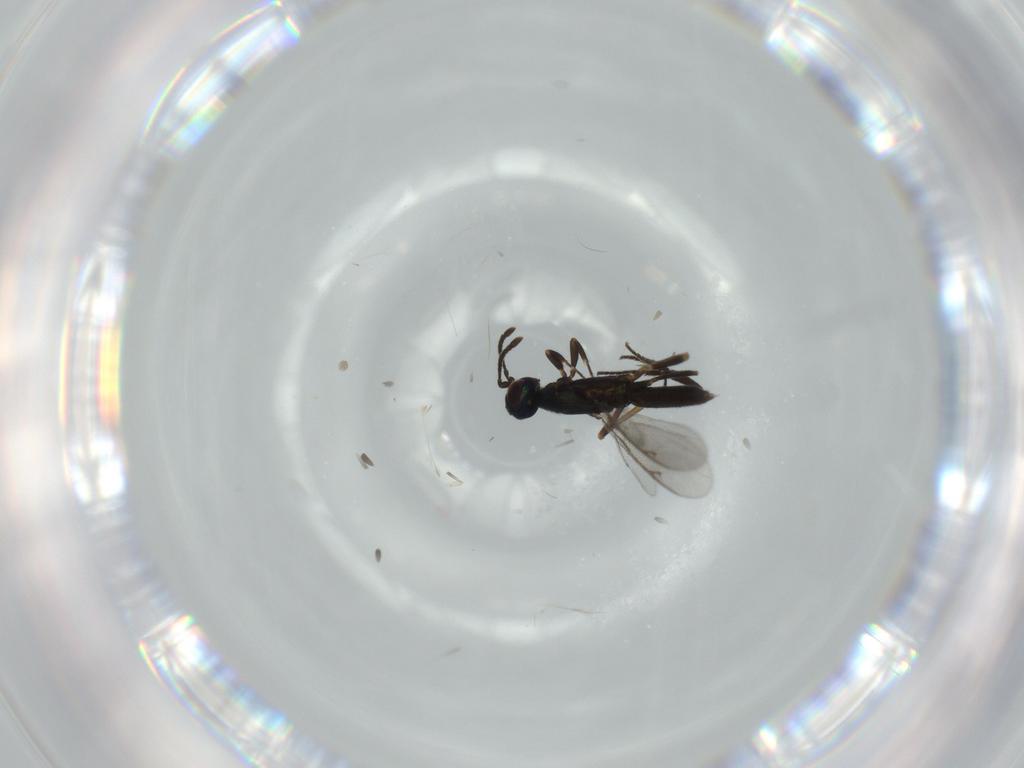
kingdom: Animalia
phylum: Arthropoda
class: Insecta
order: Hymenoptera
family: Eupelmidae
